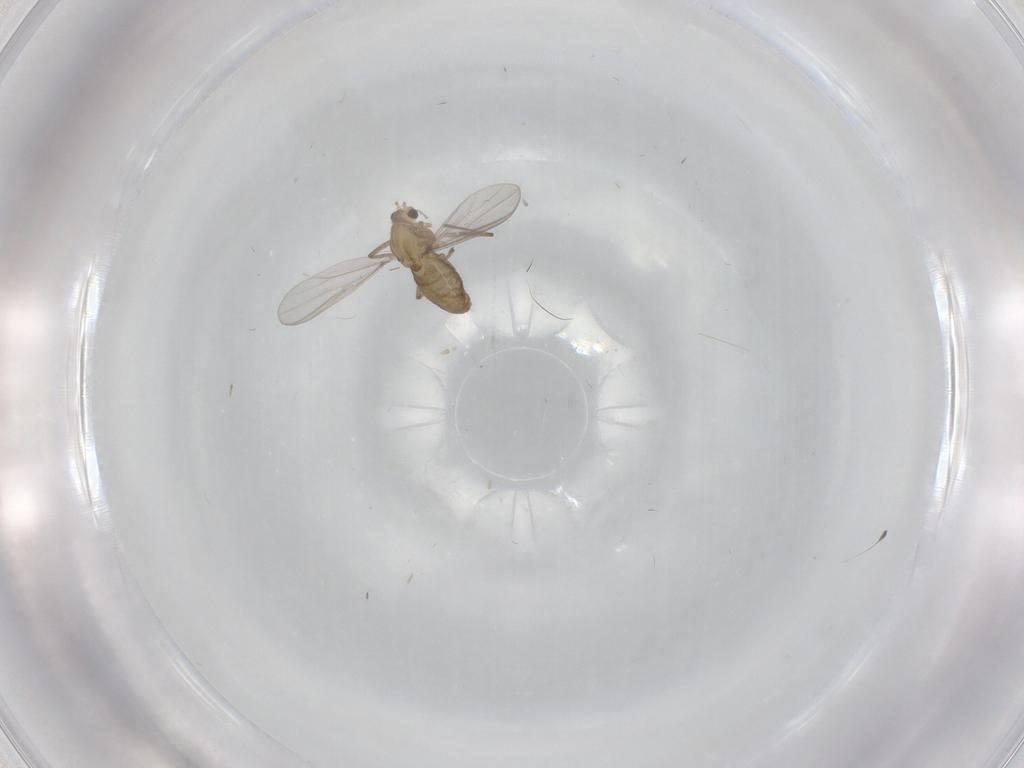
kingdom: Animalia
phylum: Arthropoda
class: Insecta
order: Diptera
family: Chironomidae
